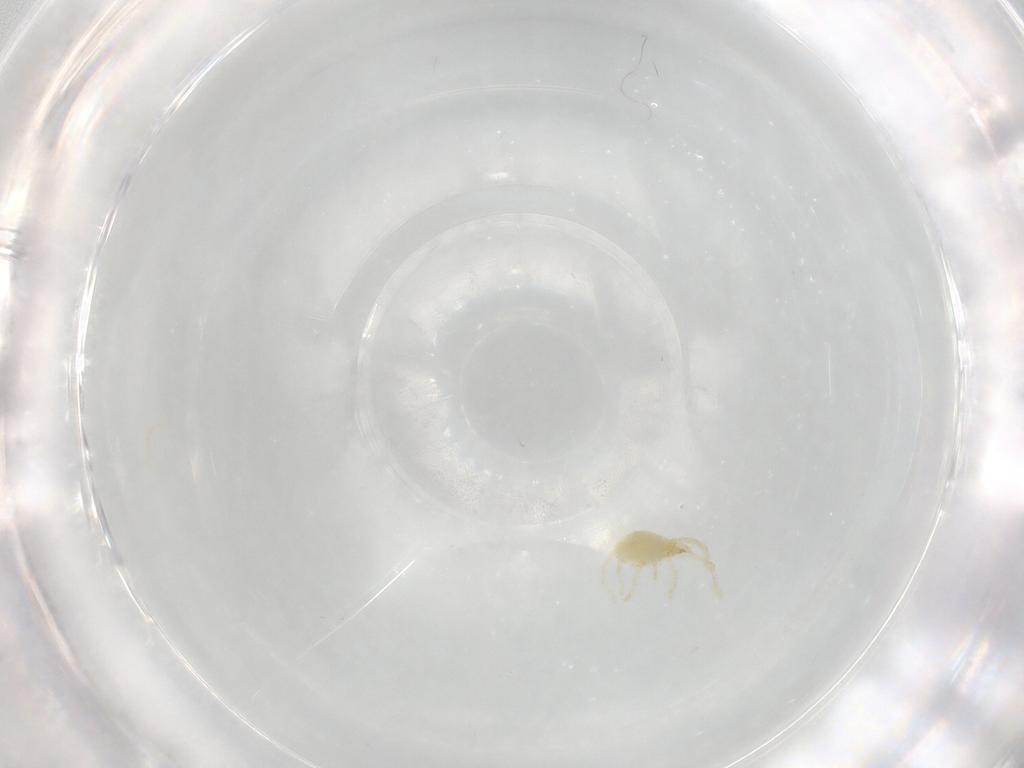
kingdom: Animalia
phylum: Arthropoda
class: Arachnida
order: Trombidiformes
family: Erythraeidae
